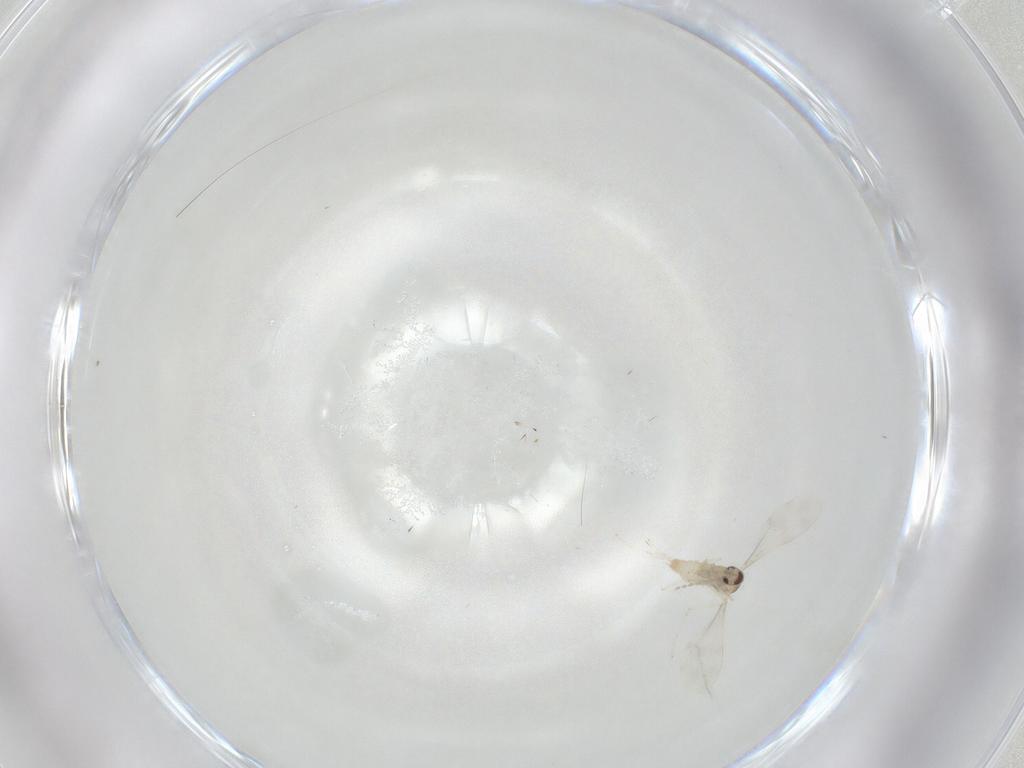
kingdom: Animalia
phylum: Arthropoda
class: Insecta
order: Diptera
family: Cecidomyiidae
